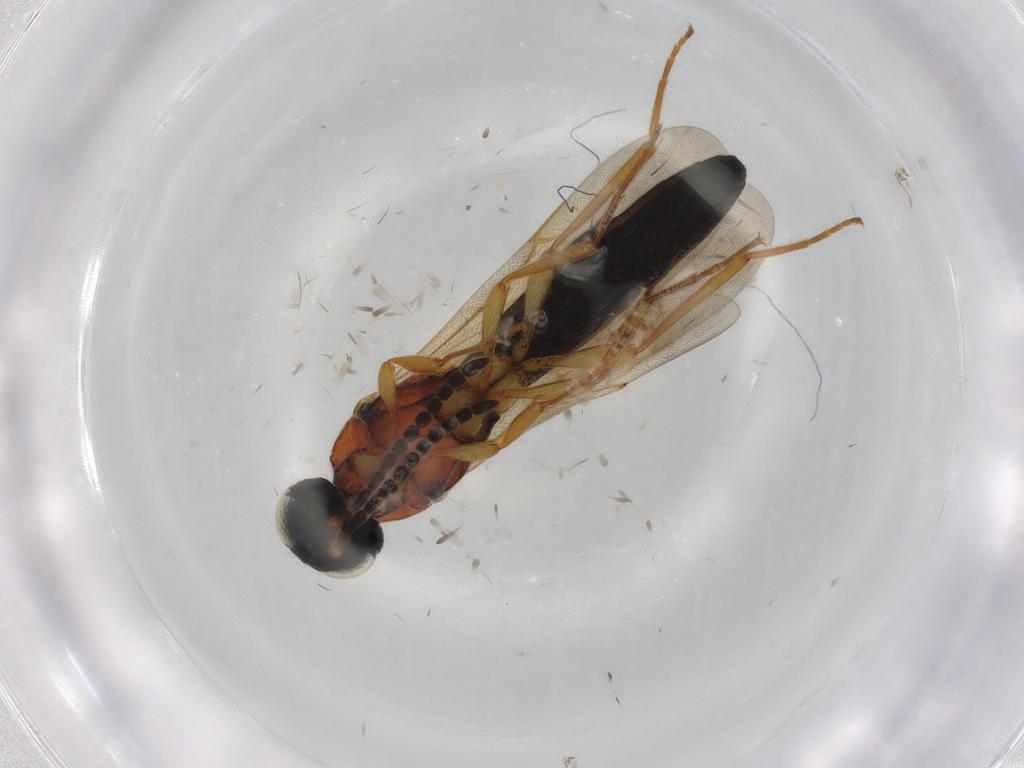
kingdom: Animalia
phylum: Arthropoda
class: Insecta
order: Hymenoptera
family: Scelionidae
